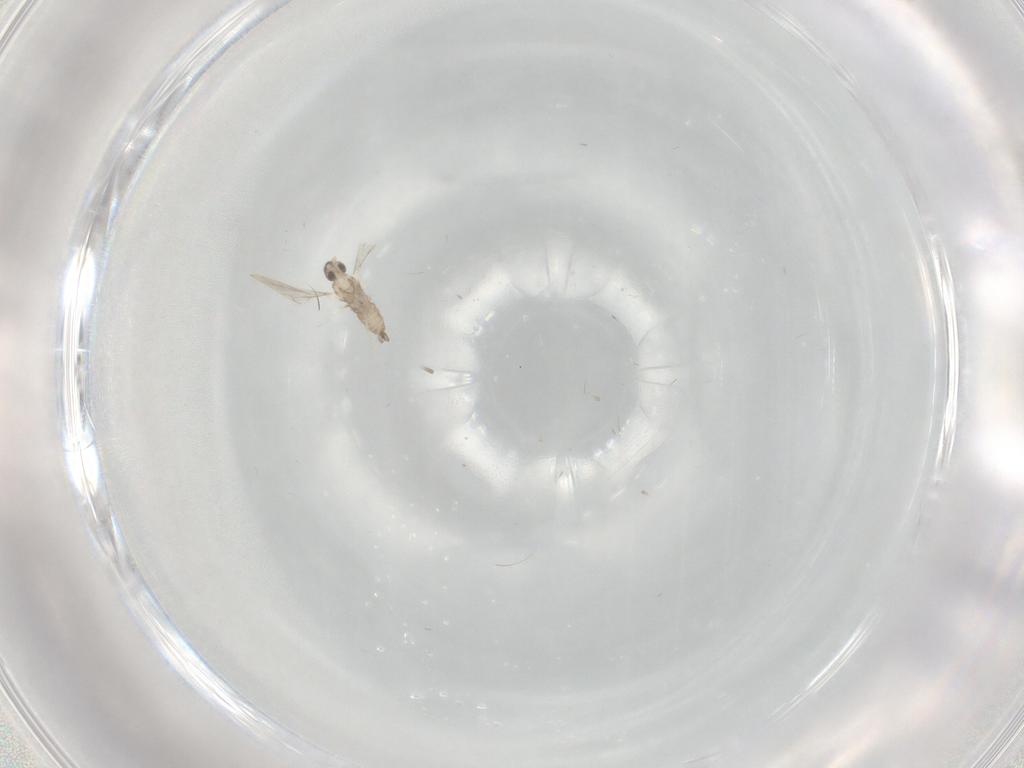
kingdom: Animalia
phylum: Arthropoda
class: Insecta
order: Diptera
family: Cecidomyiidae
